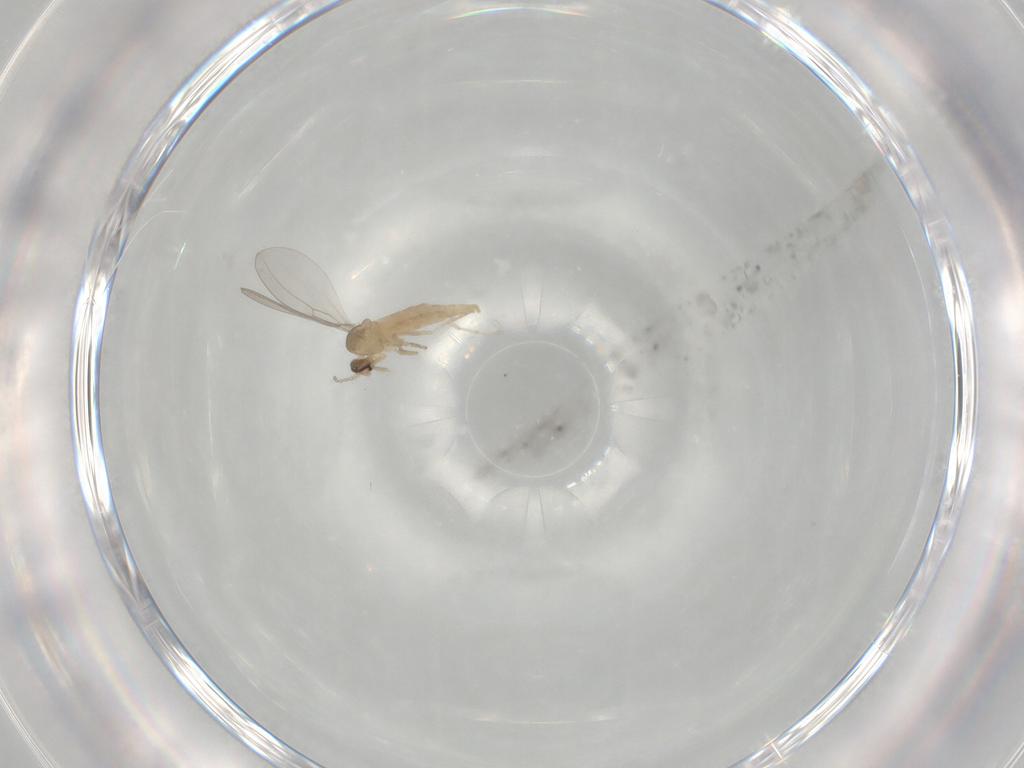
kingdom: Animalia
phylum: Arthropoda
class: Insecta
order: Diptera
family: Cecidomyiidae
